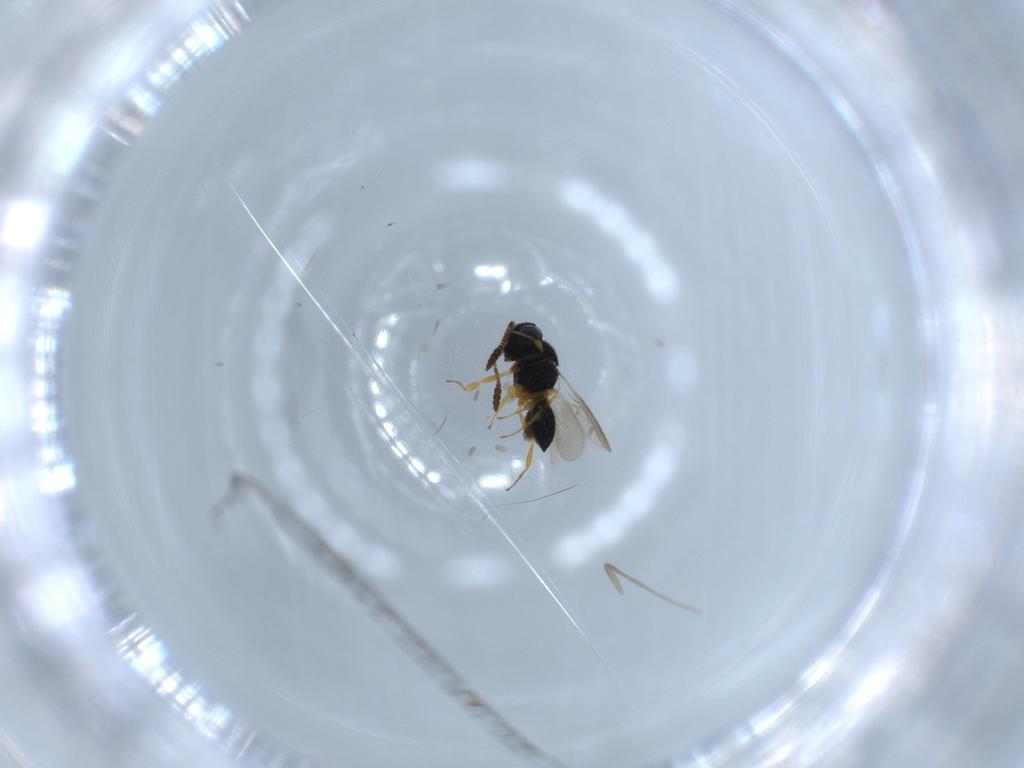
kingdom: Animalia
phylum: Arthropoda
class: Insecta
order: Hymenoptera
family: Scelionidae
